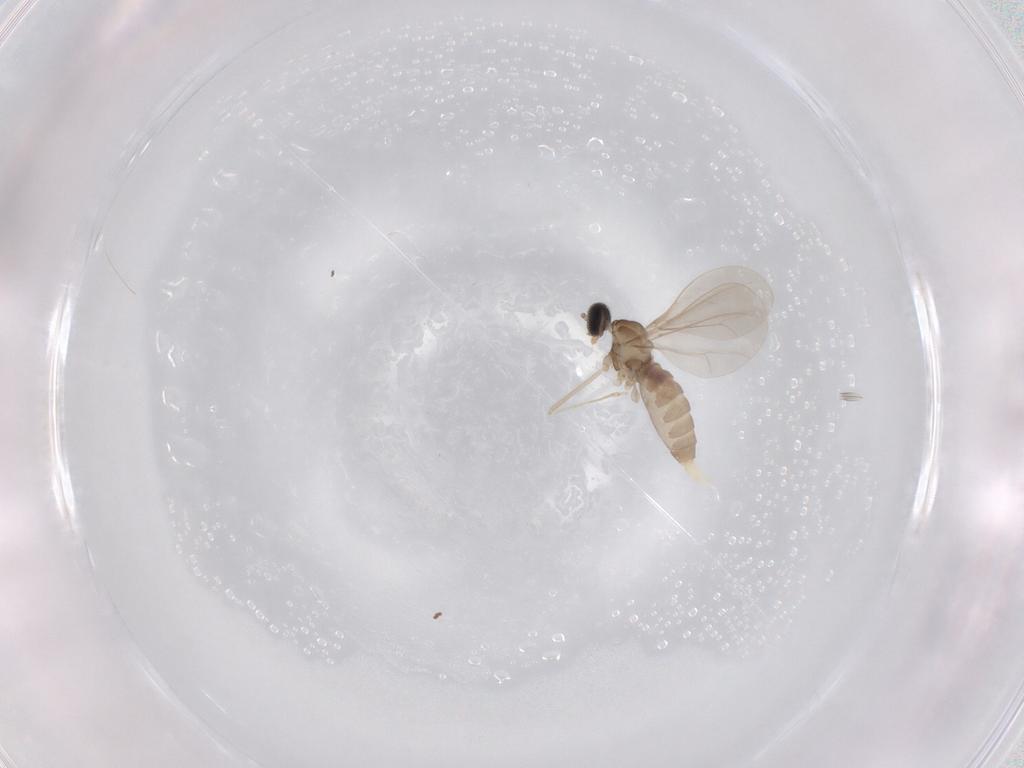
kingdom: Animalia
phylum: Arthropoda
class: Insecta
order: Diptera
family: Cecidomyiidae
